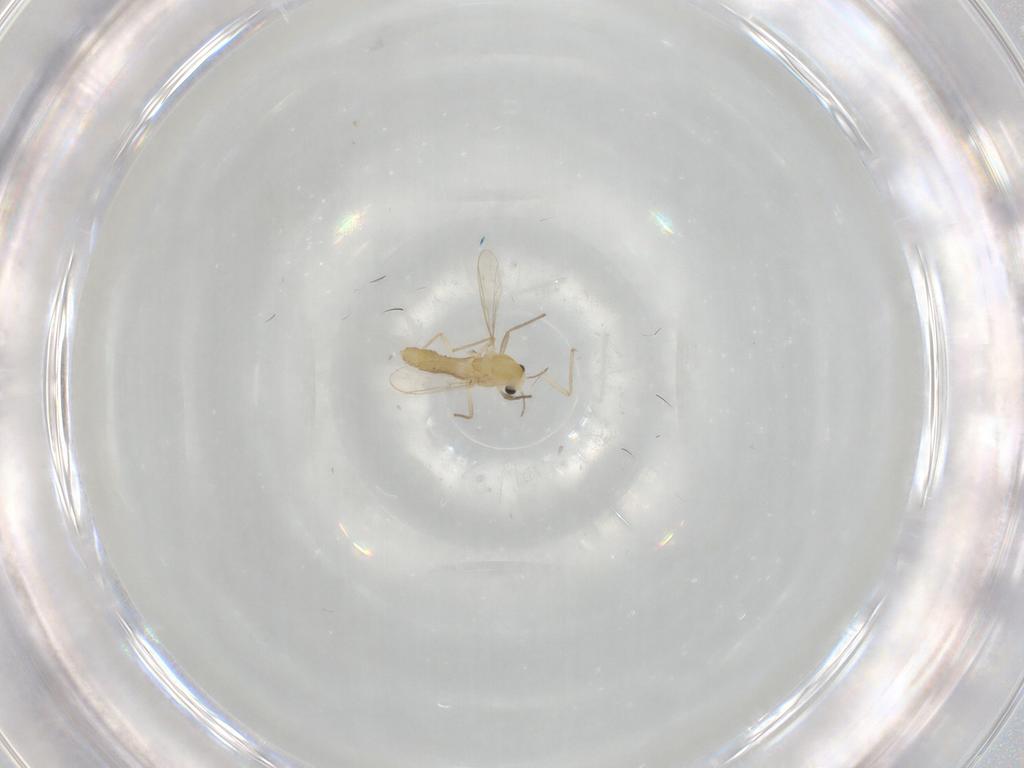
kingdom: Animalia
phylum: Arthropoda
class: Insecta
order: Diptera
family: Chironomidae
